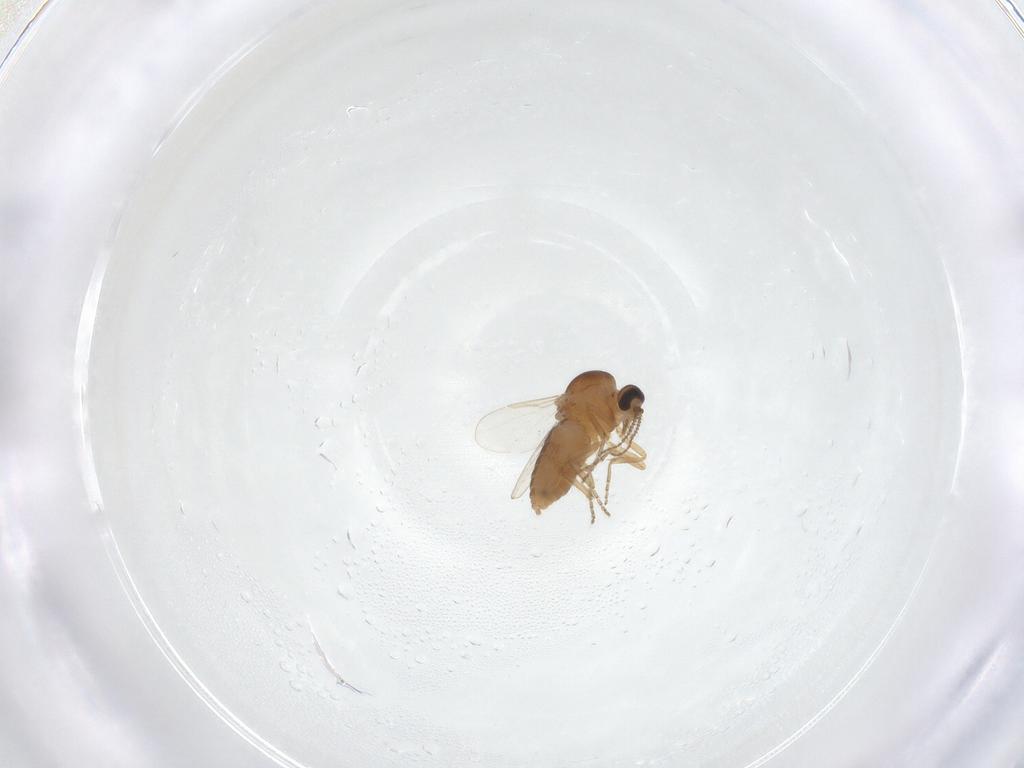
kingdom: Animalia
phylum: Arthropoda
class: Insecta
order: Diptera
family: Ceratopogonidae
